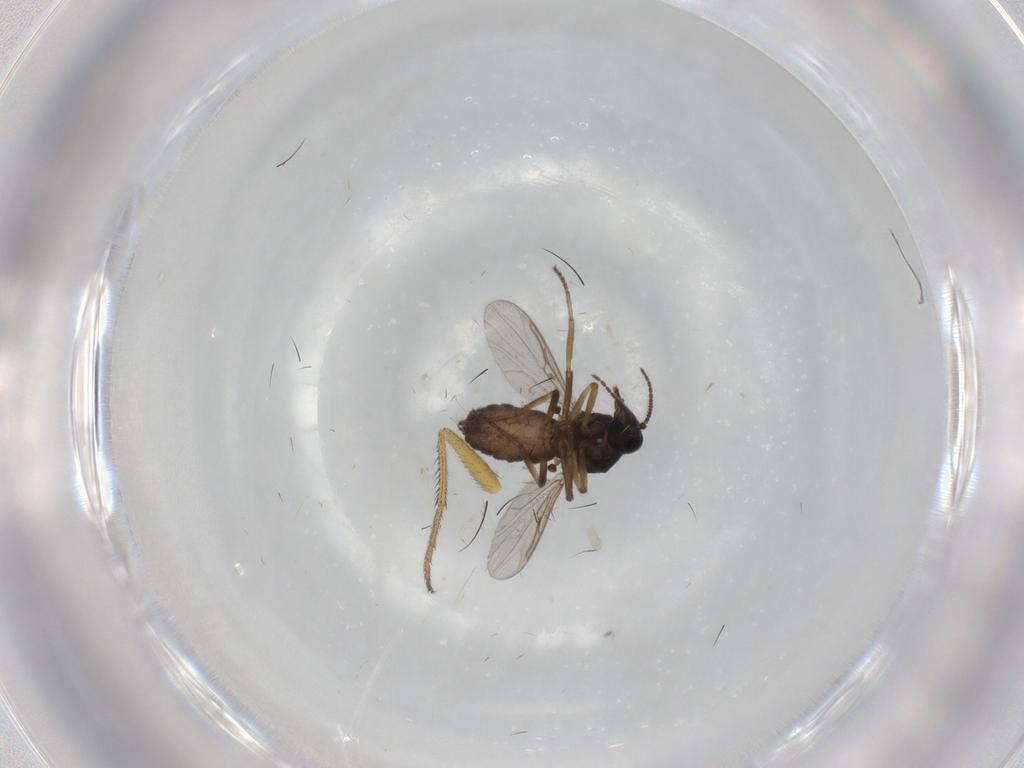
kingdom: Animalia
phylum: Arthropoda
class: Insecta
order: Diptera
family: Ceratopogonidae
